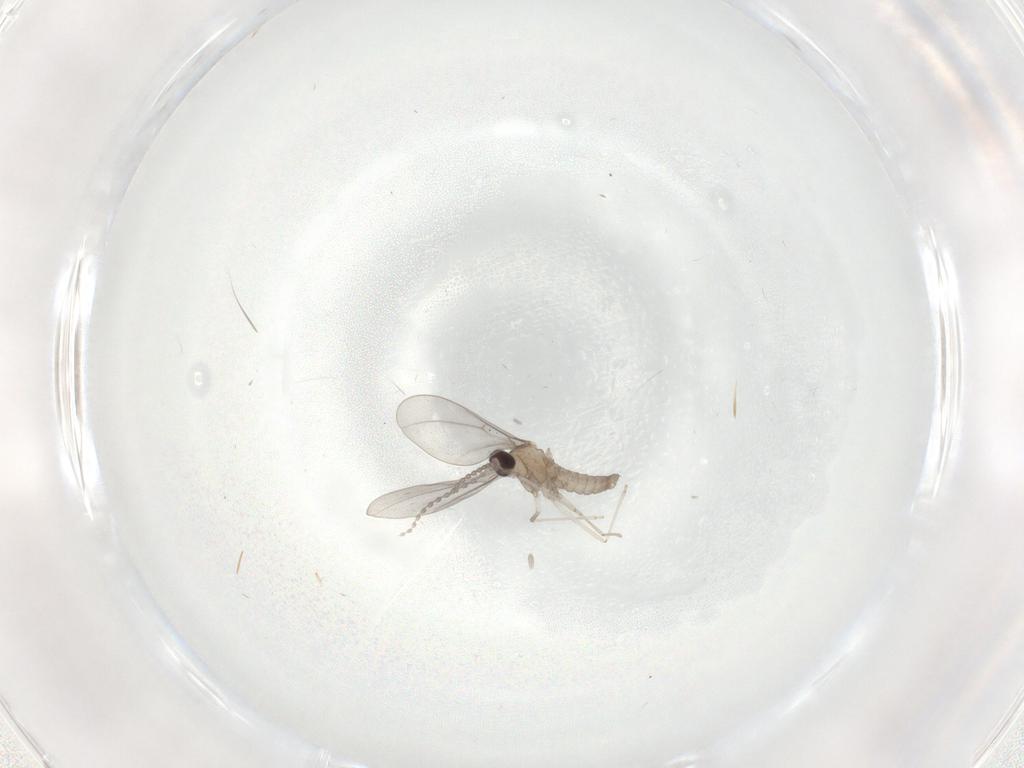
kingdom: Animalia
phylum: Arthropoda
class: Insecta
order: Diptera
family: Cecidomyiidae
